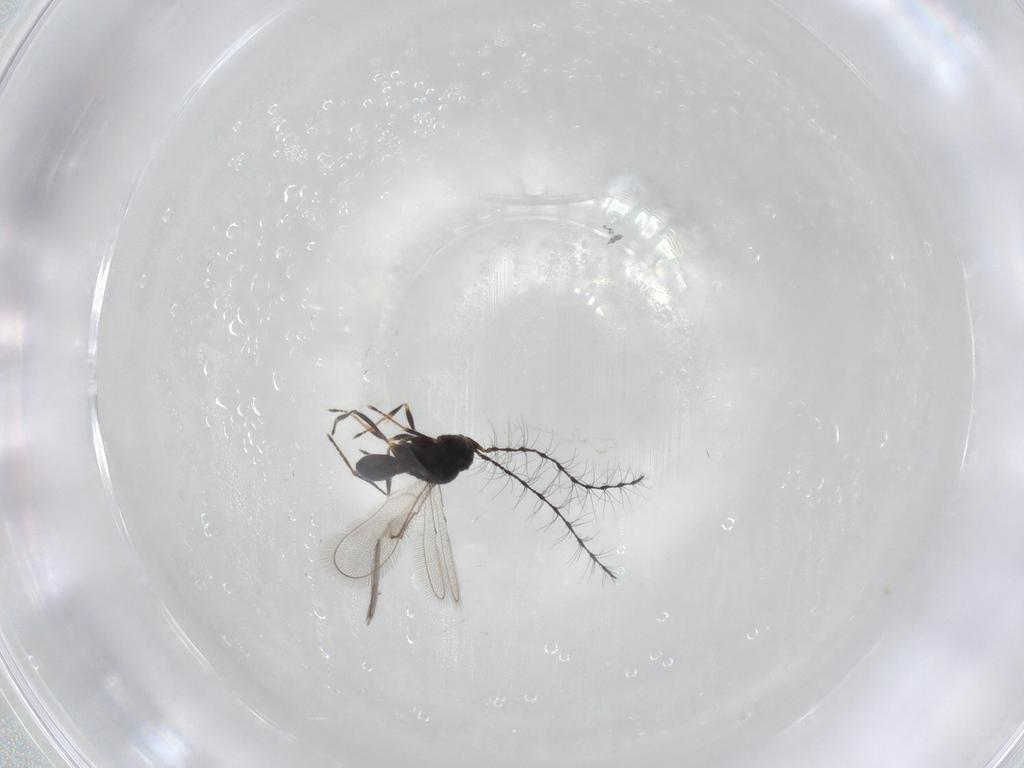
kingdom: Animalia
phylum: Arthropoda
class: Insecta
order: Hymenoptera
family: Scelionidae
